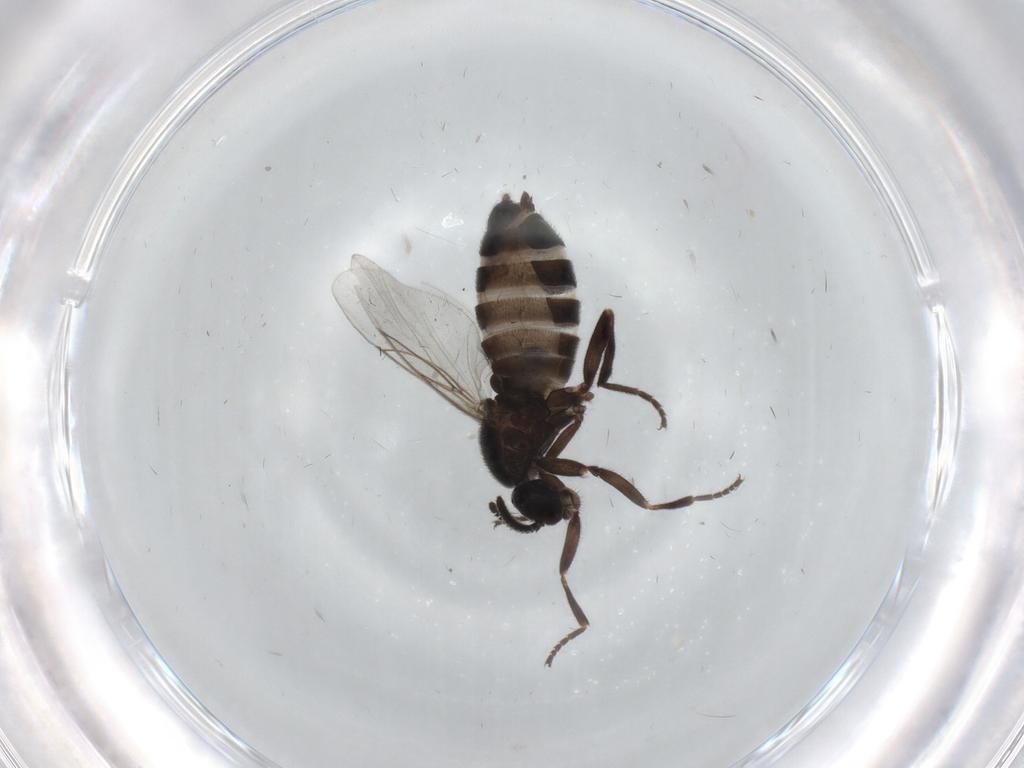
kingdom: Animalia
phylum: Arthropoda
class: Insecta
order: Diptera
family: Scatopsidae
